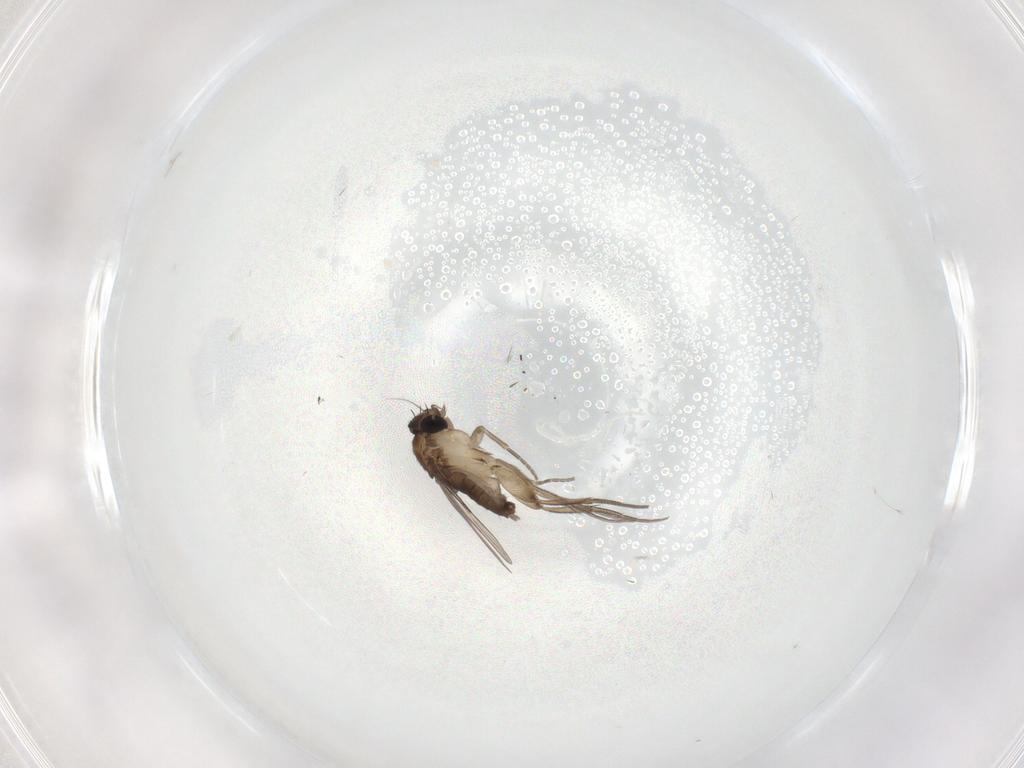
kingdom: Animalia
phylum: Arthropoda
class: Insecta
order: Diptera
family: Phoridae
